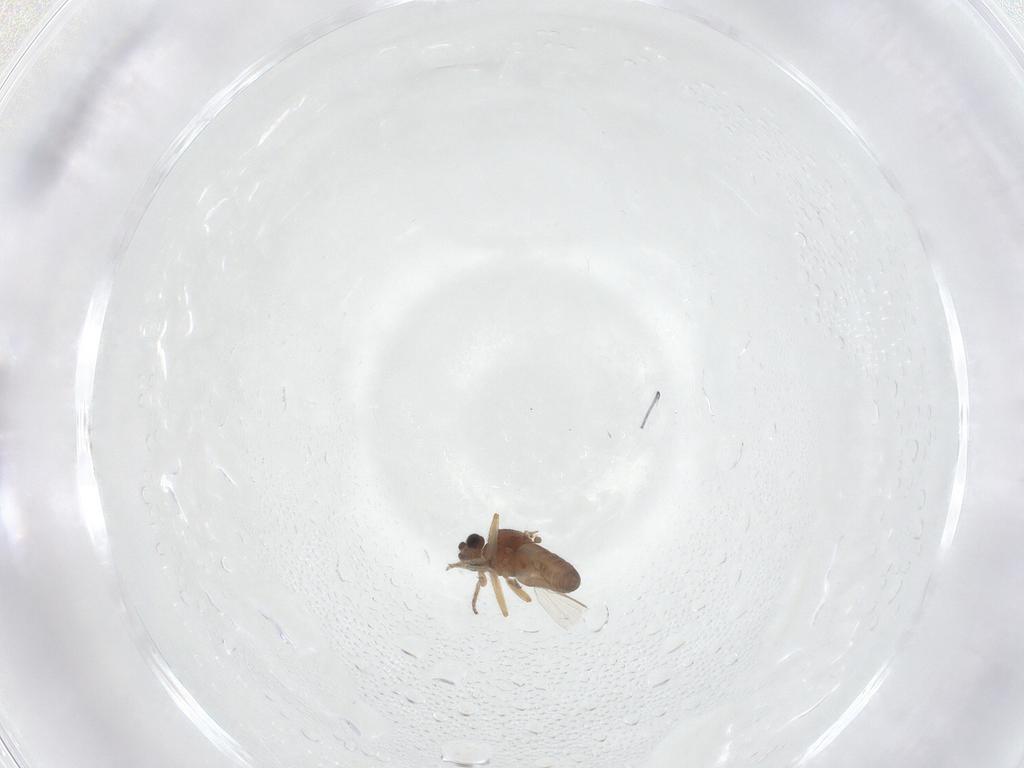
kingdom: Animalia
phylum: Arthropoda
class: Insecta
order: Diptera
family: Ceratopogonidae
